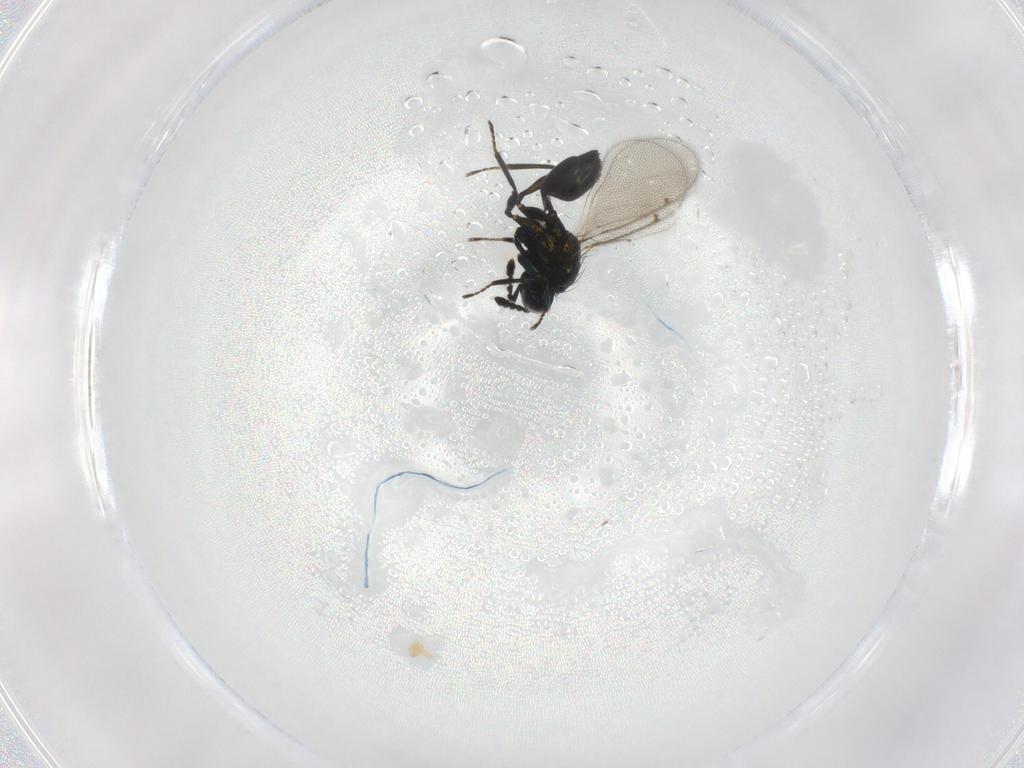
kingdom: Animalia
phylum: Arthropoda
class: Insecta
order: Hymenoptera
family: Eulophidae
